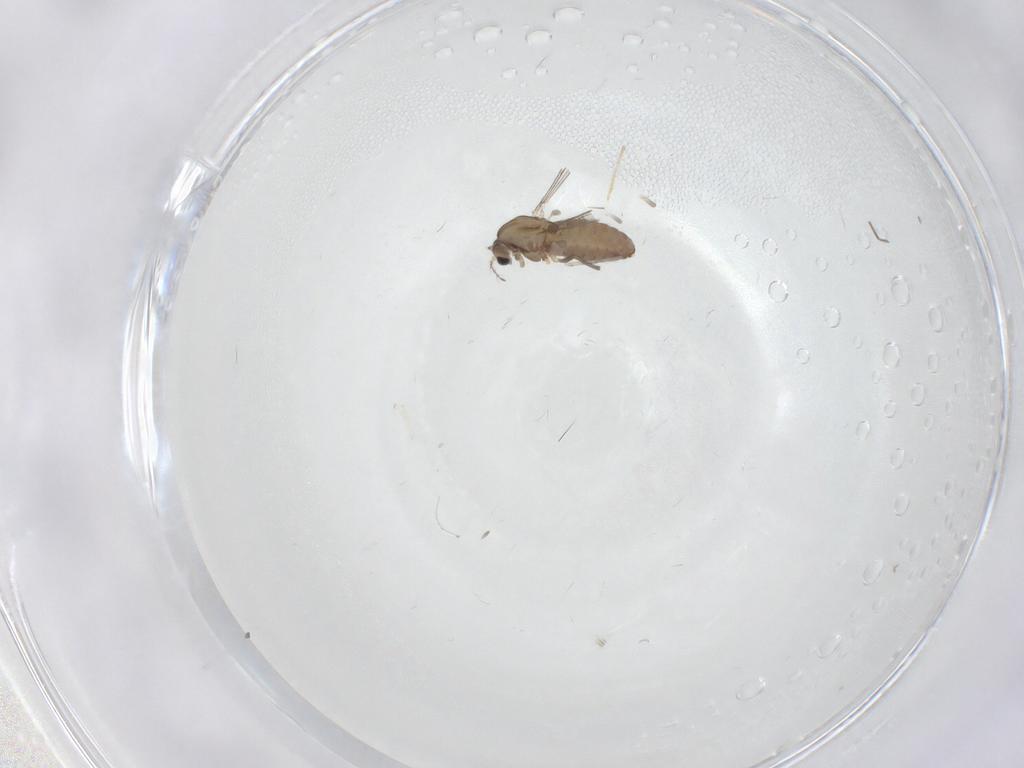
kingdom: Animalia
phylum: Arthropoda
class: Insecta
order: Diptera
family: Chironomidae
